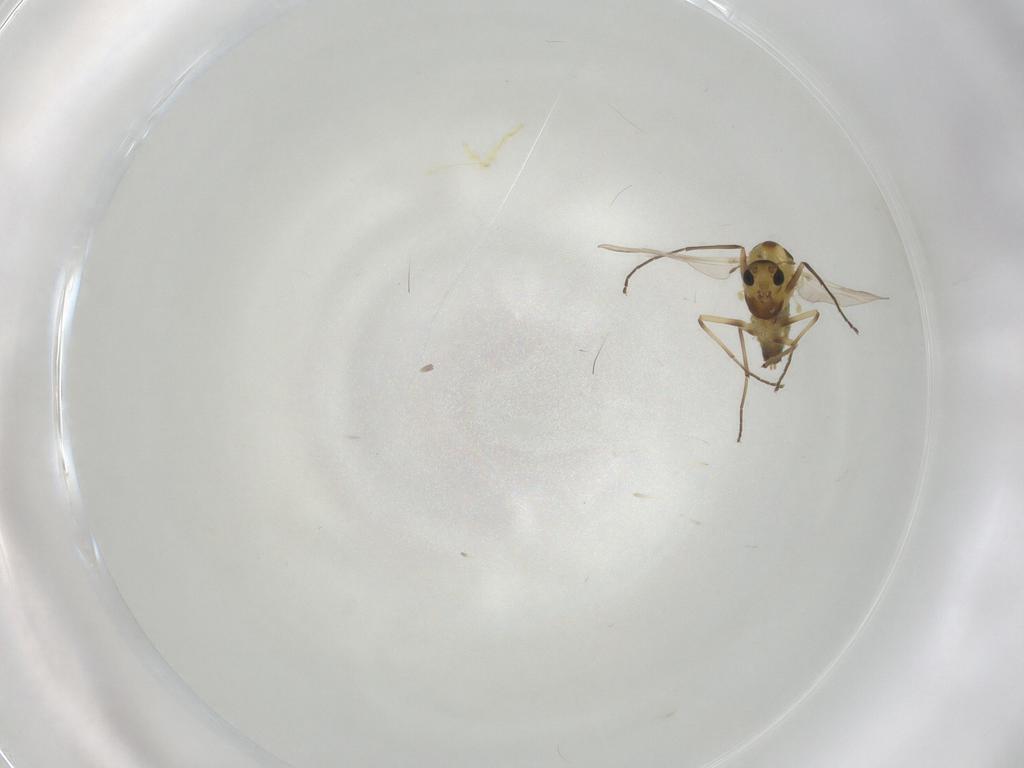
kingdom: Animalia
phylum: Arthropoda
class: Insecta
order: Diptera
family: Chironomidae
